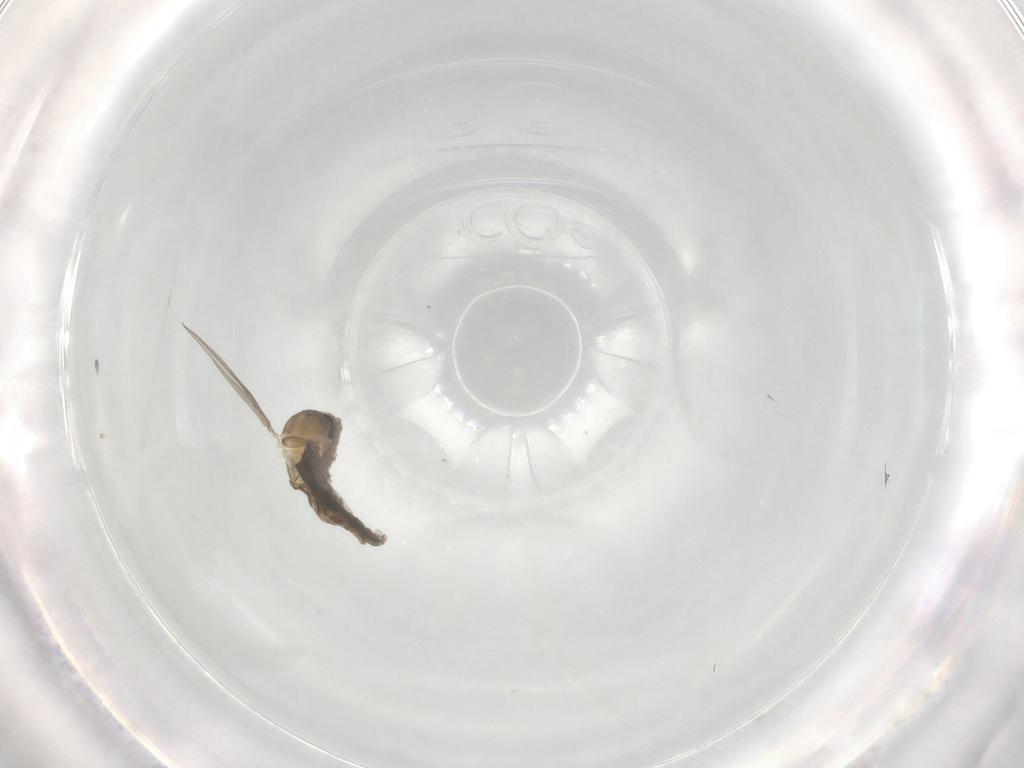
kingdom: Animalia
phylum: Arthropoda
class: Insecta
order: Diptera
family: Cecidomyiidae
